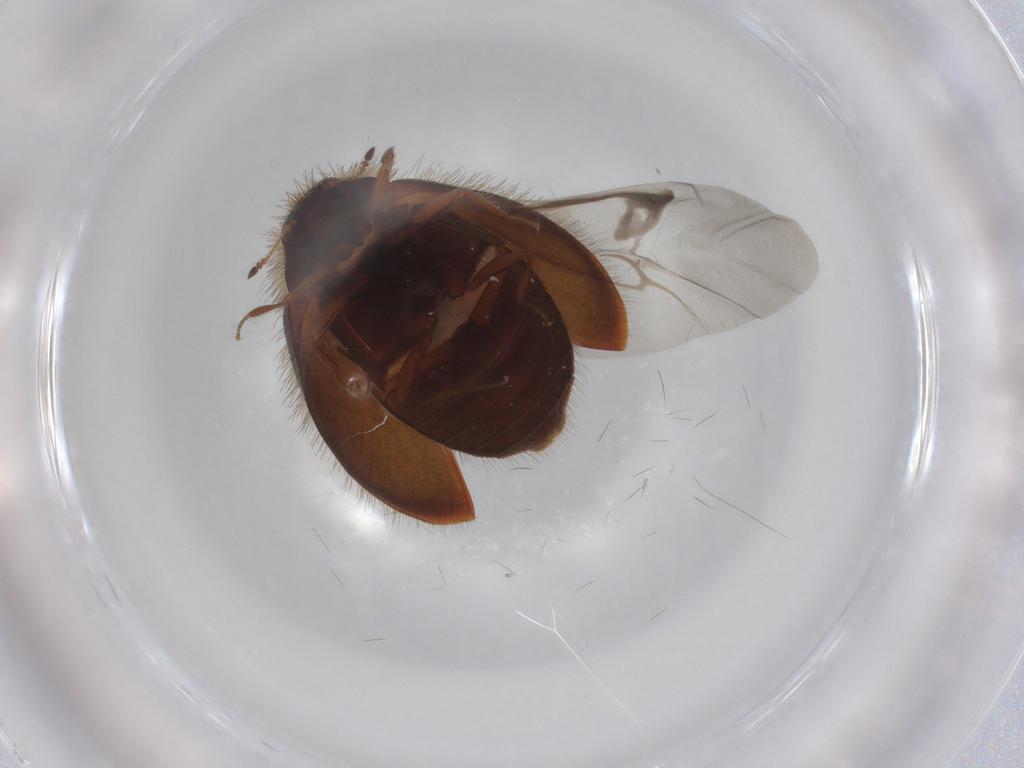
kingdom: Animalia
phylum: Arthropoda
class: Insecta
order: Coleoptera
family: Scraptiidae
